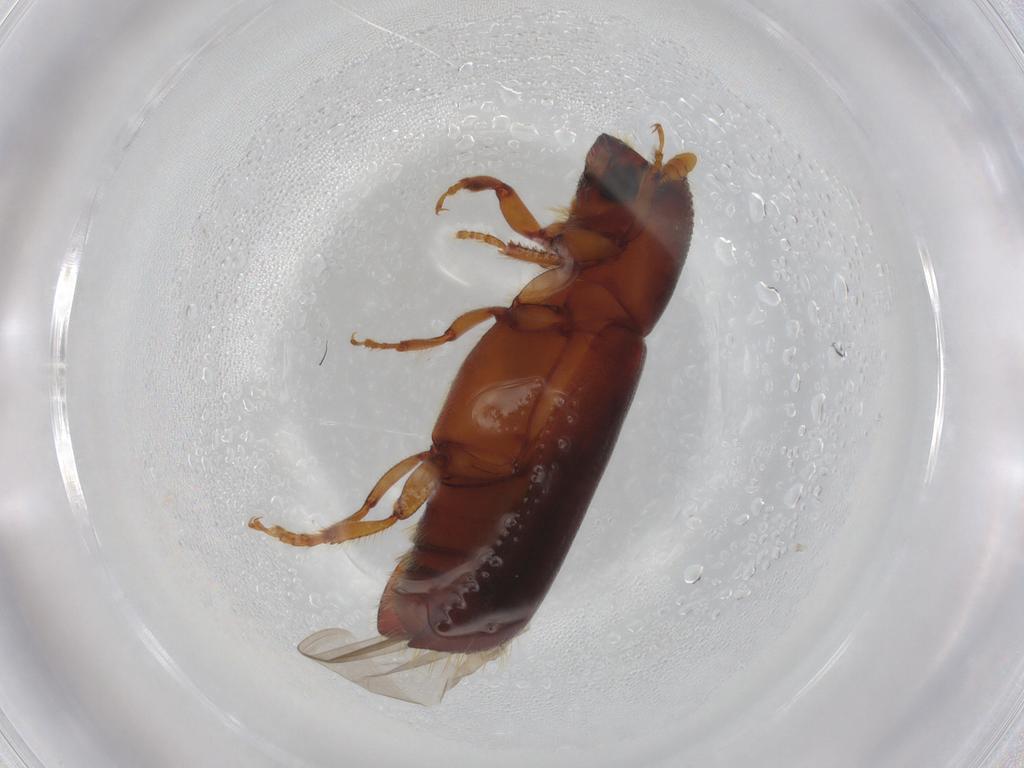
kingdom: Animalia
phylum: Arthropoda
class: Insecta
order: Coleoptera
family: Curculionidae
